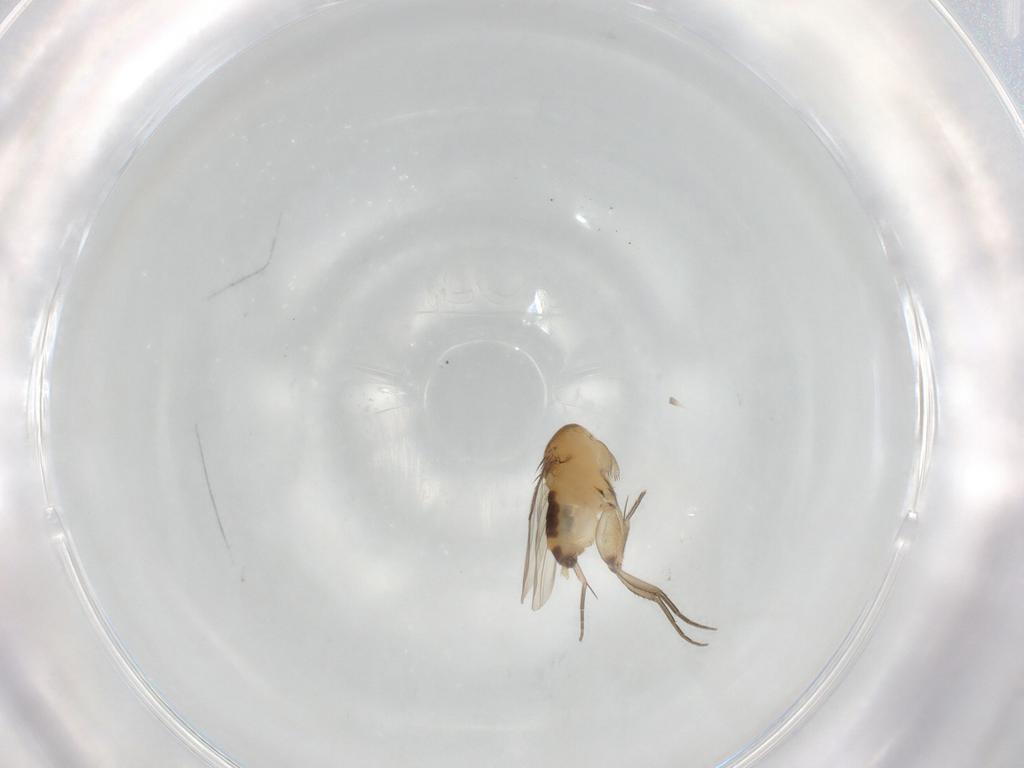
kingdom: Animalia
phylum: Arthropoda
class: Insecta
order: Diptera
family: Phoridae
